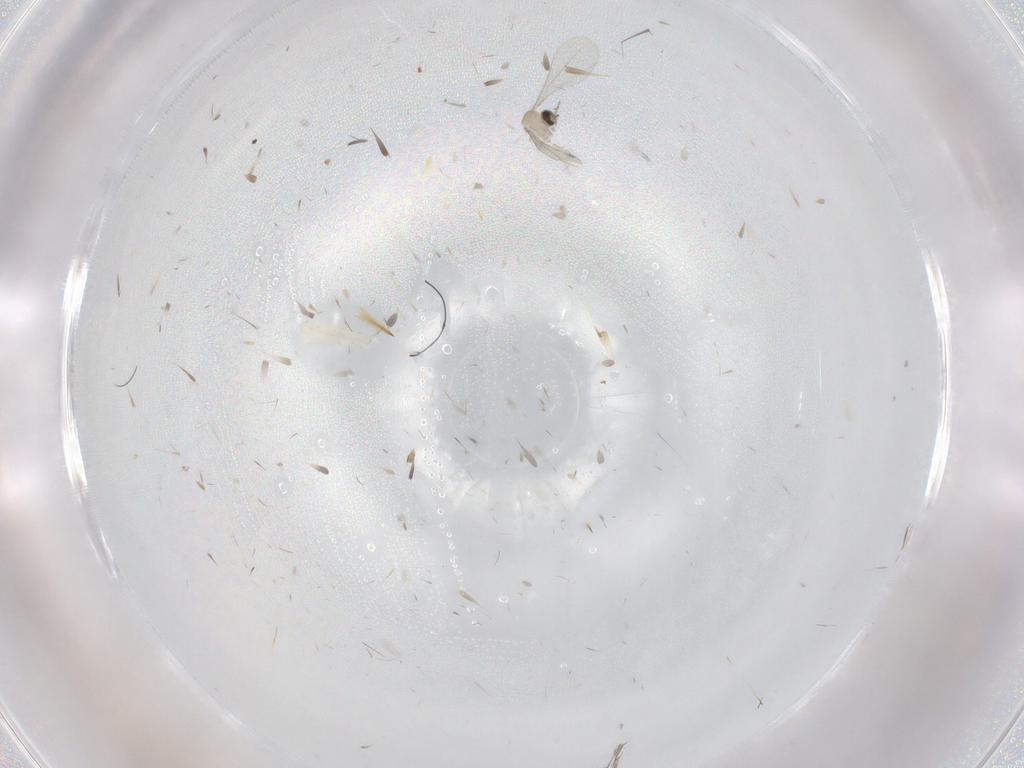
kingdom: Animalia
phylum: Arthropoda
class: Insecta
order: Diptera
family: Cecidomyiidae
